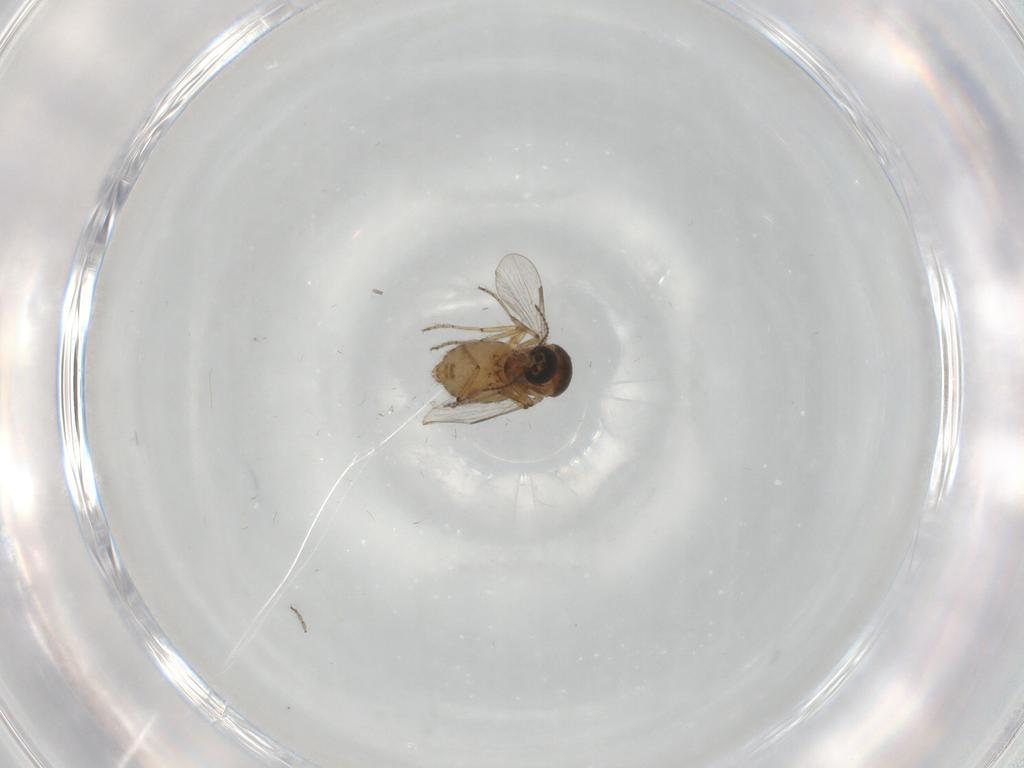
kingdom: Animalia
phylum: Arthropoda
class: Insecta
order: Diptera
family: Ceratopogonidae
